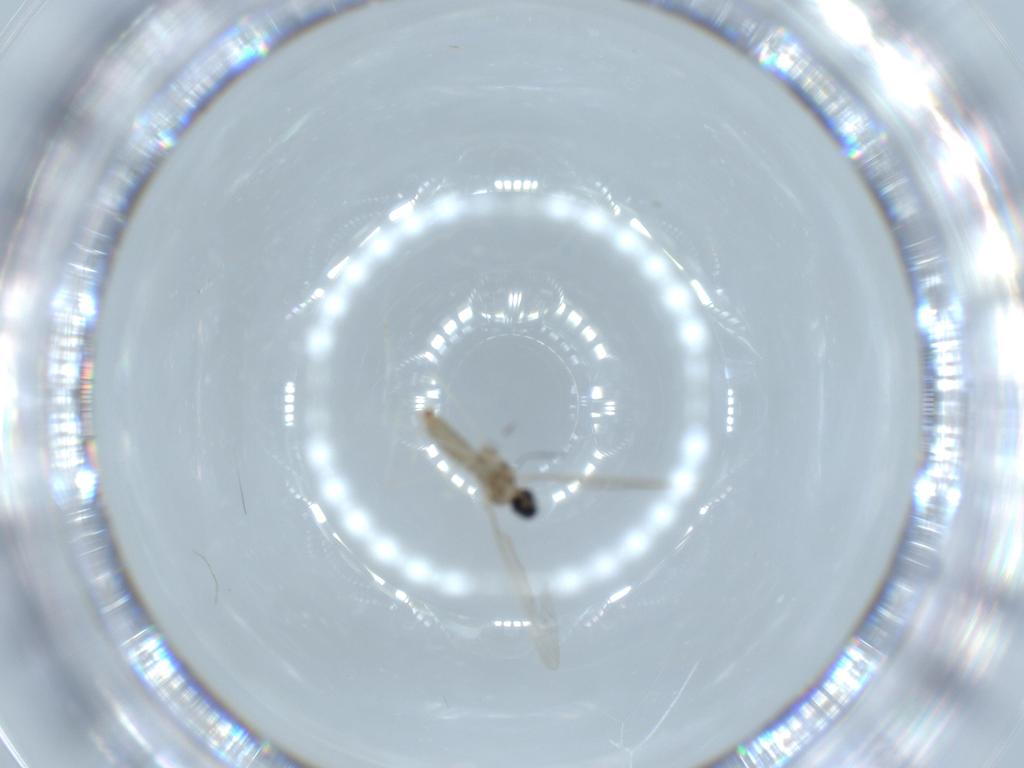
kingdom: Animalia
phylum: Arthropoda
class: Insecta
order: Diptera
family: Cecidomyiidae
